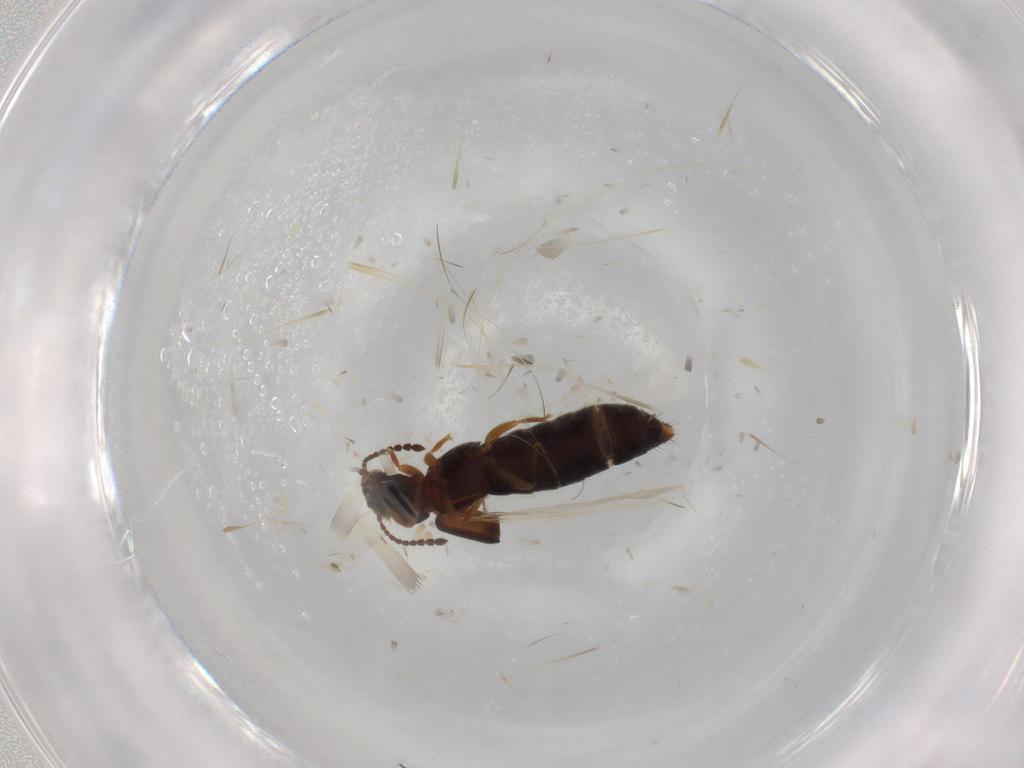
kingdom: Animalia
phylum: Arthropoda
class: Insecta
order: Coleoptera
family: Staphylinidae
